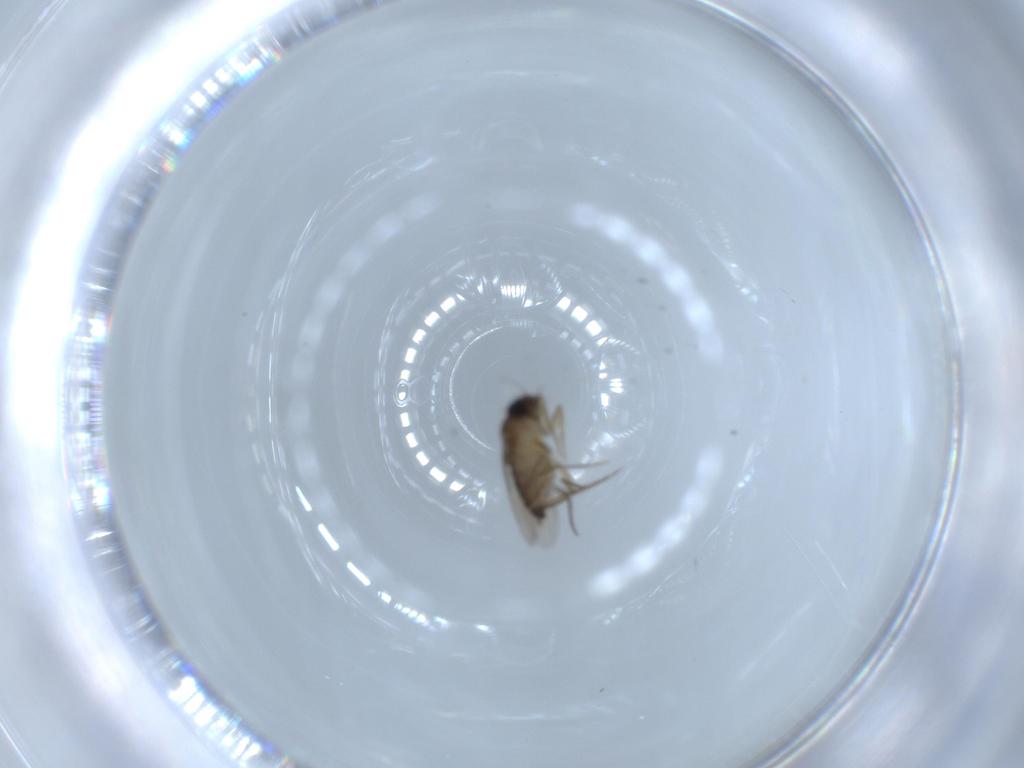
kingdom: Animalia
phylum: Arthropoda
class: Insecta
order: Diptera
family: Phoridae
